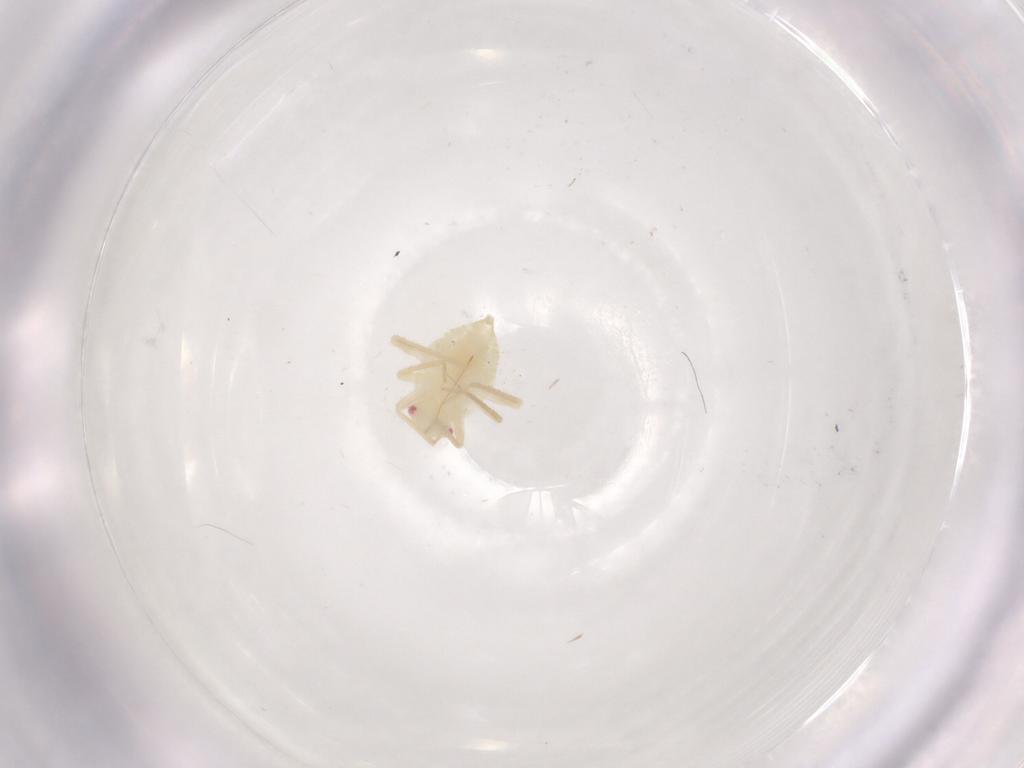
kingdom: Animalia
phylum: Arthropoda
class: Insecta
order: Hemiptera
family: Miridae
